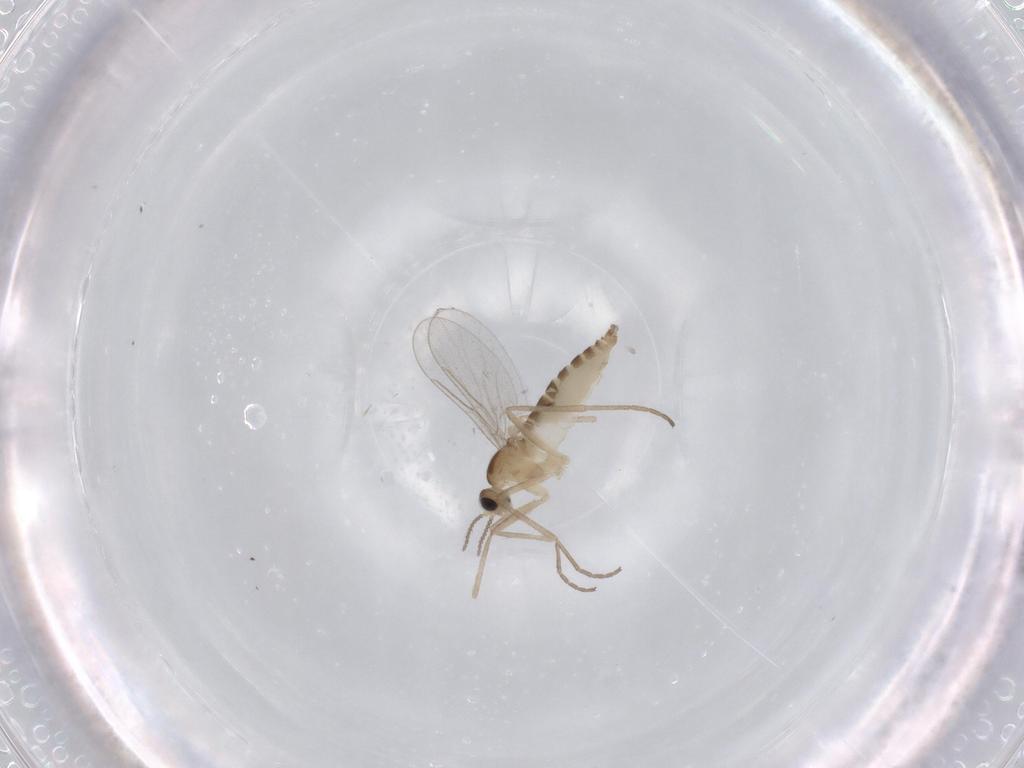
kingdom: Animalia
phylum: Arthropoda
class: Insecta
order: Diptera
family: Cecidomyiidae
